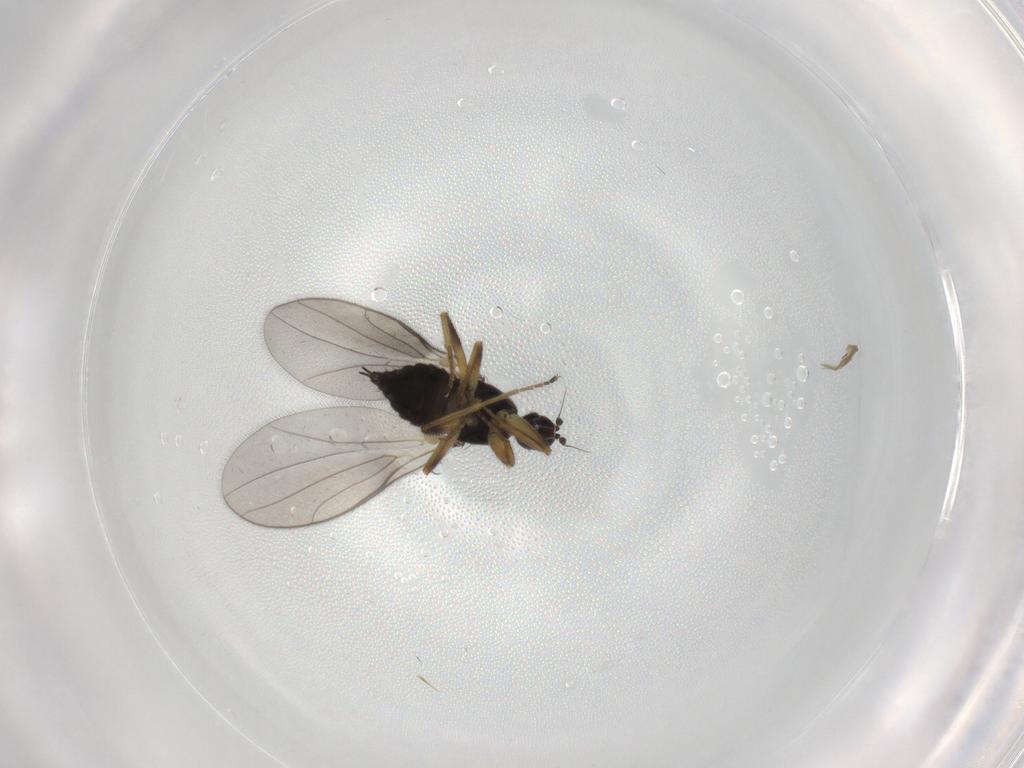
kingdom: Animalia
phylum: Arthropoda
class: Insecta
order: Diptera
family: Hybotidae
